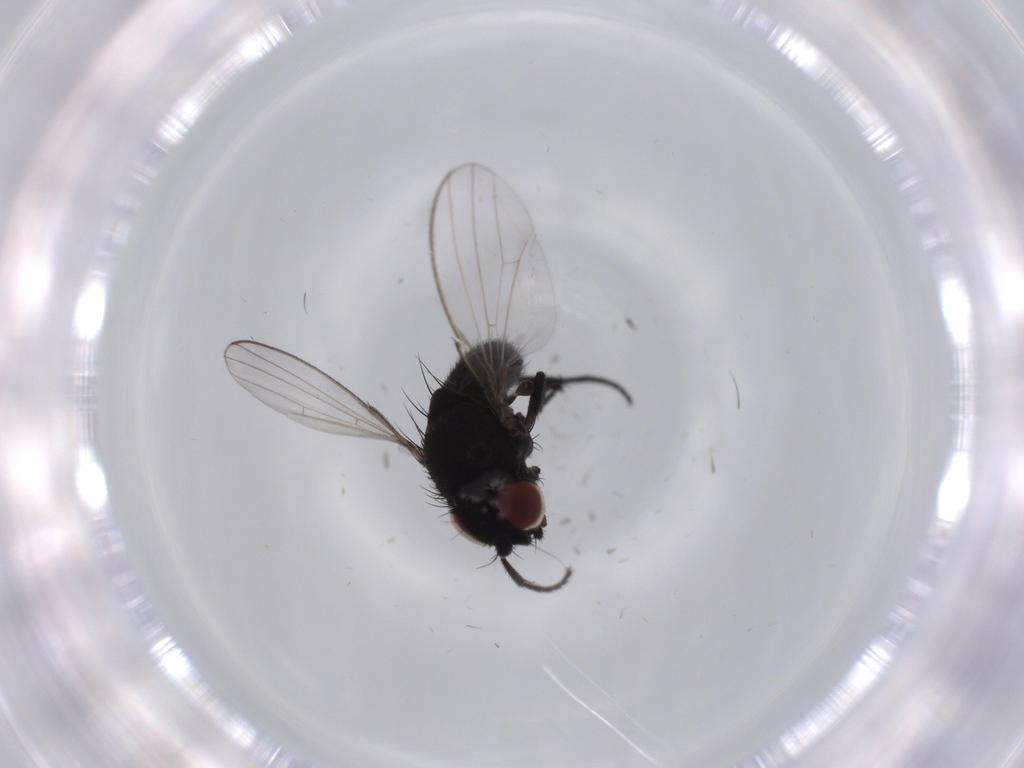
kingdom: Animalia
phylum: Arthropoda
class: Insecta
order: Diptera
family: Milichiidae
